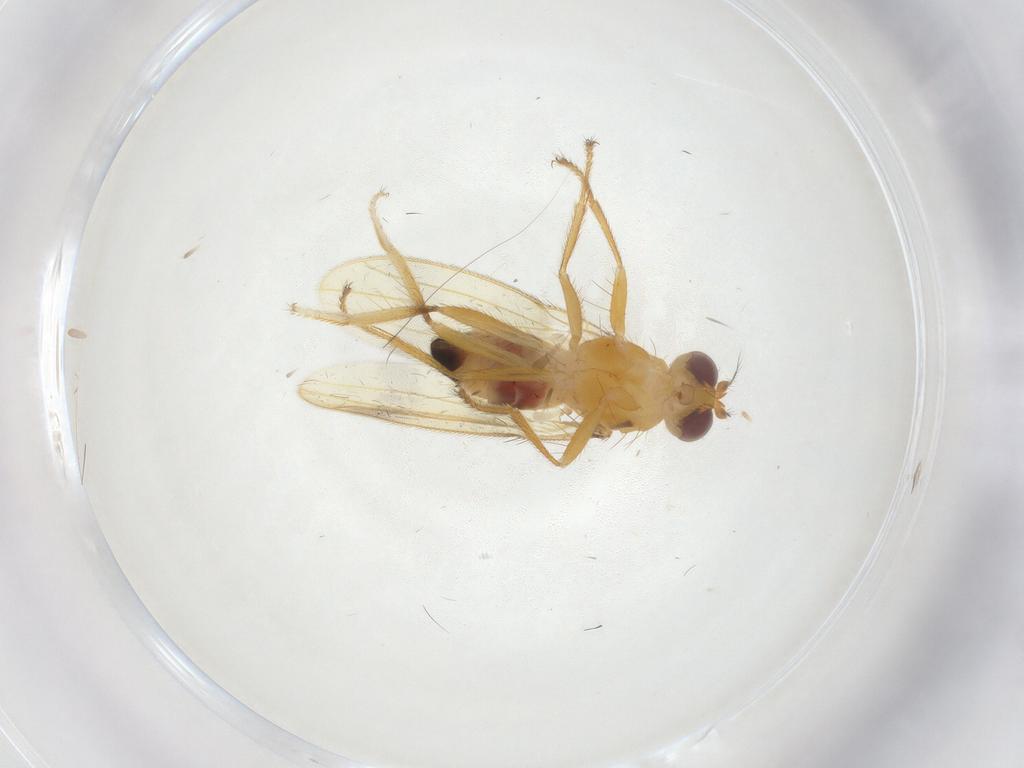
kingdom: Animalia
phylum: Arthropoda
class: Insecta
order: Diptera
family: Periscelididae
